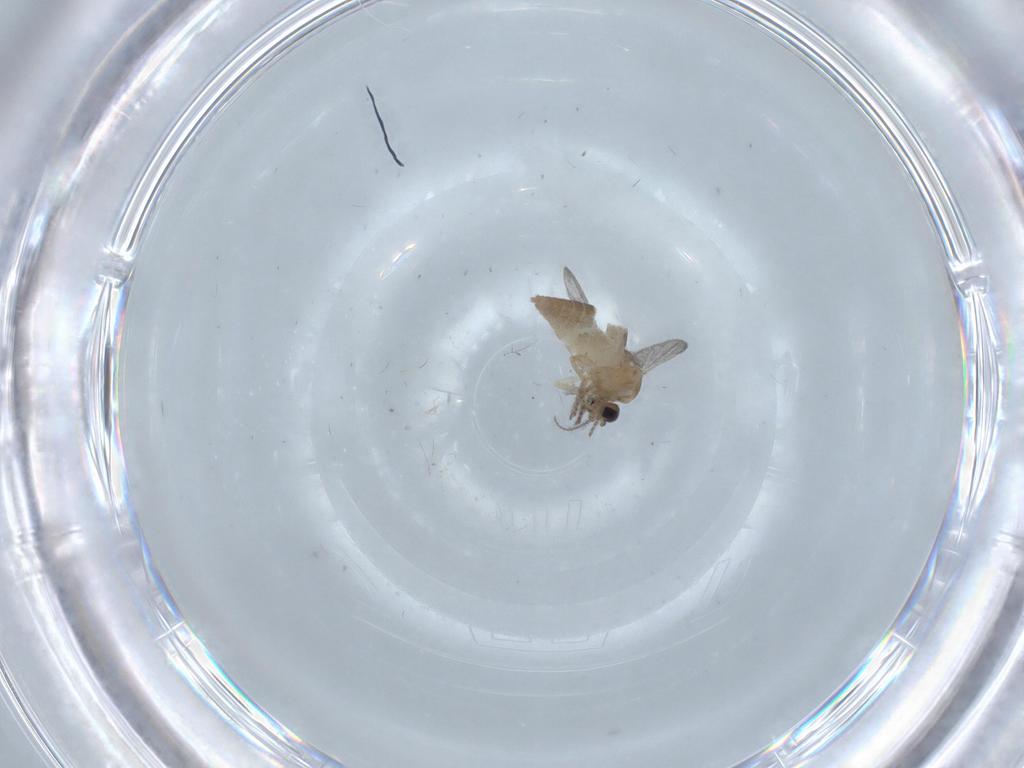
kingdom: Animalia
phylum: Arthropoda
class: Insecta
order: Diptera
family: Ceratopogonidae
